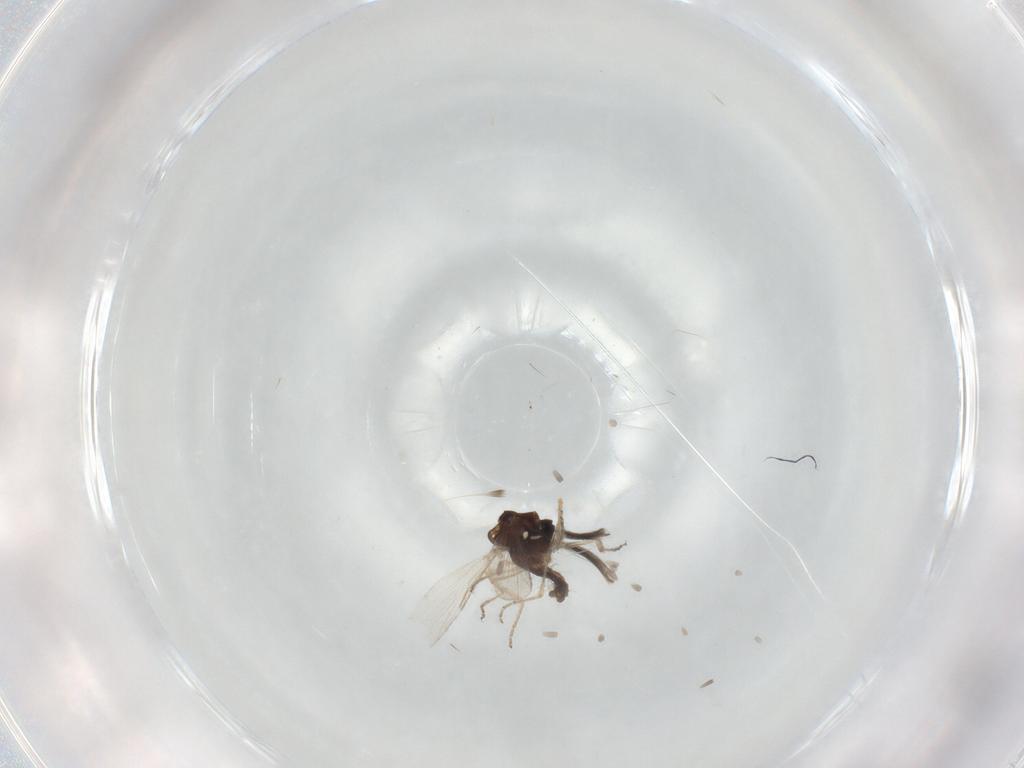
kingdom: Animalia
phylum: Arthropoda
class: Insecta
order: Diptera
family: Ceratopogonidae
